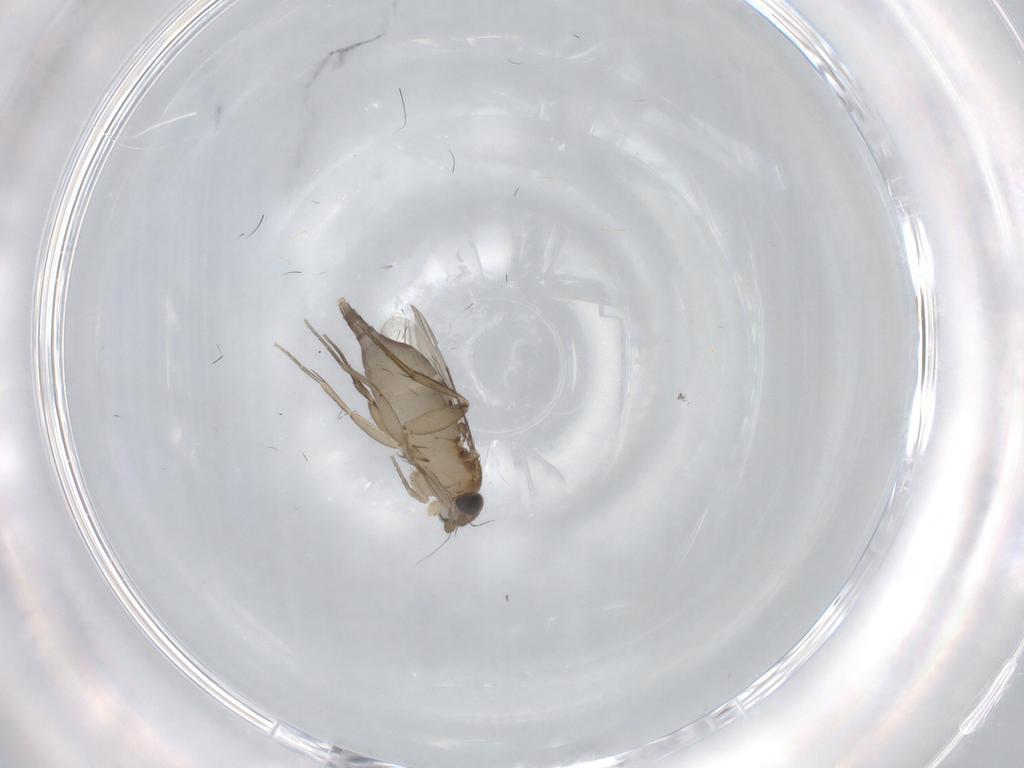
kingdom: Animalia
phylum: Arthropoda
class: Insecta
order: Diptera
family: Phoridae
